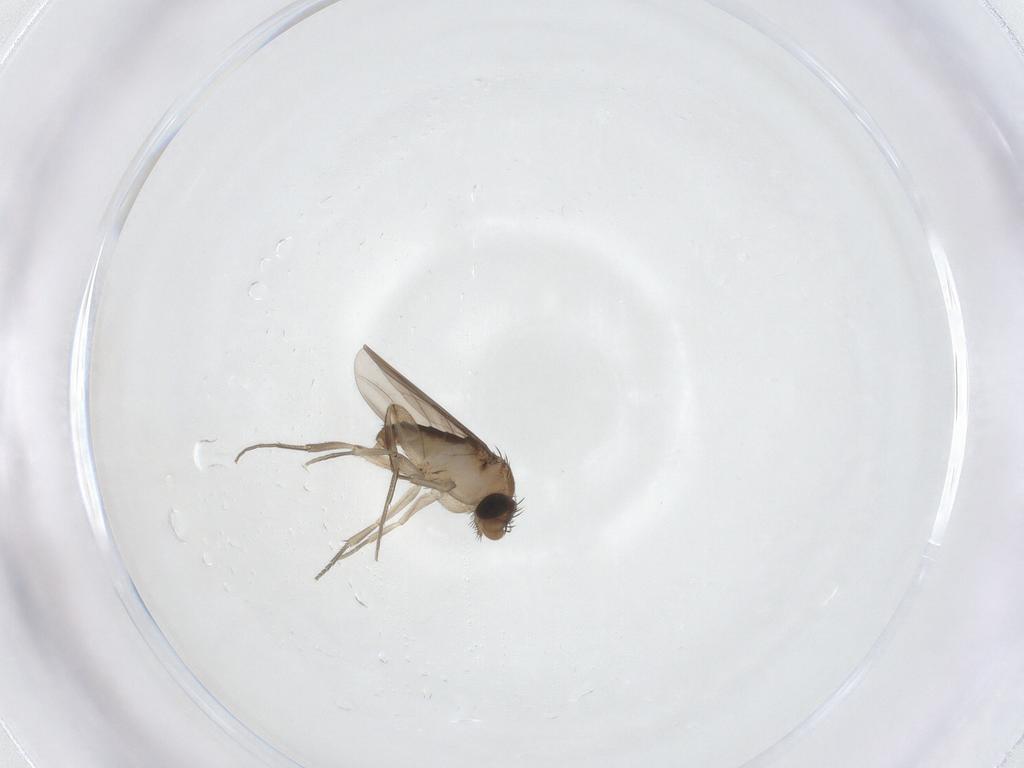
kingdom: Animalia
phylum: Arthropoda
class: Insecta
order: Diptera
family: Phoridae
